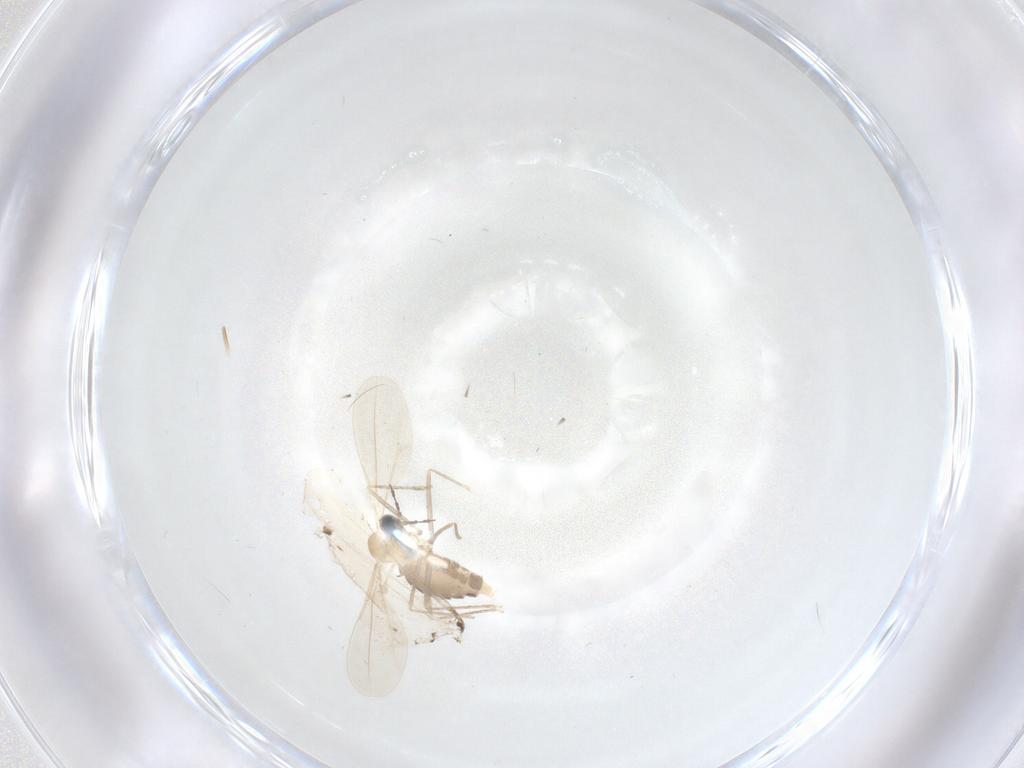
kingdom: Animalia
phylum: Arthropoda
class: Insecta
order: Diptera
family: Cecidomyiidae
